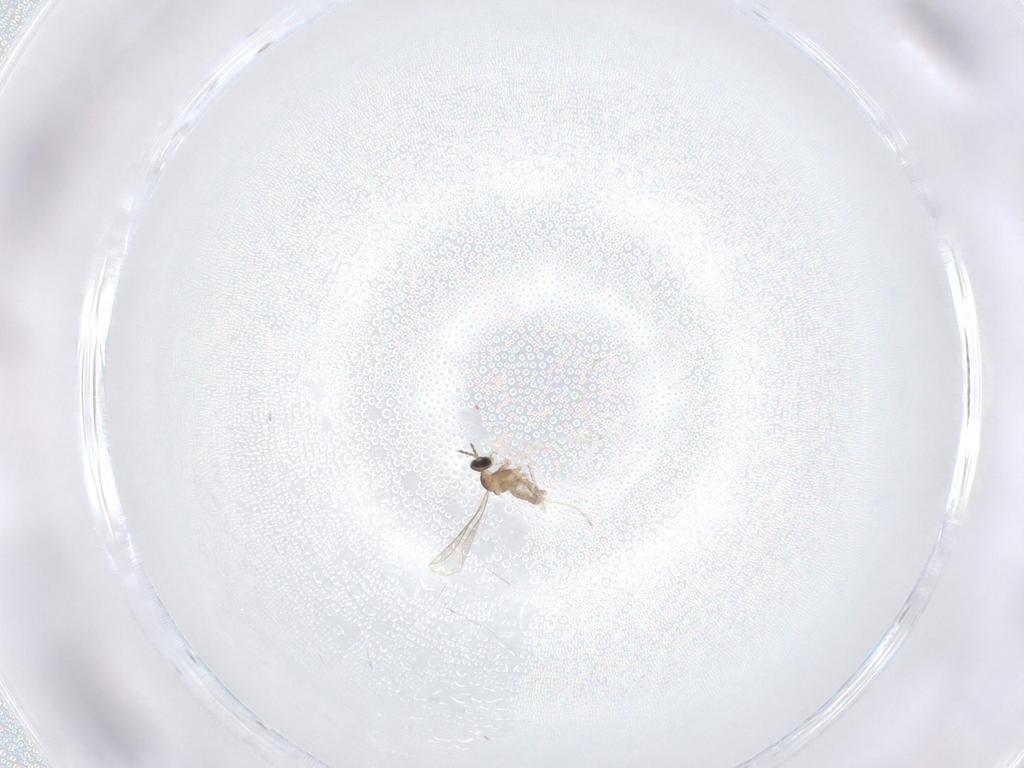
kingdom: Animalia
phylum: Arthropoda
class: Insecta
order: Diptera
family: Cecidomyiidae
